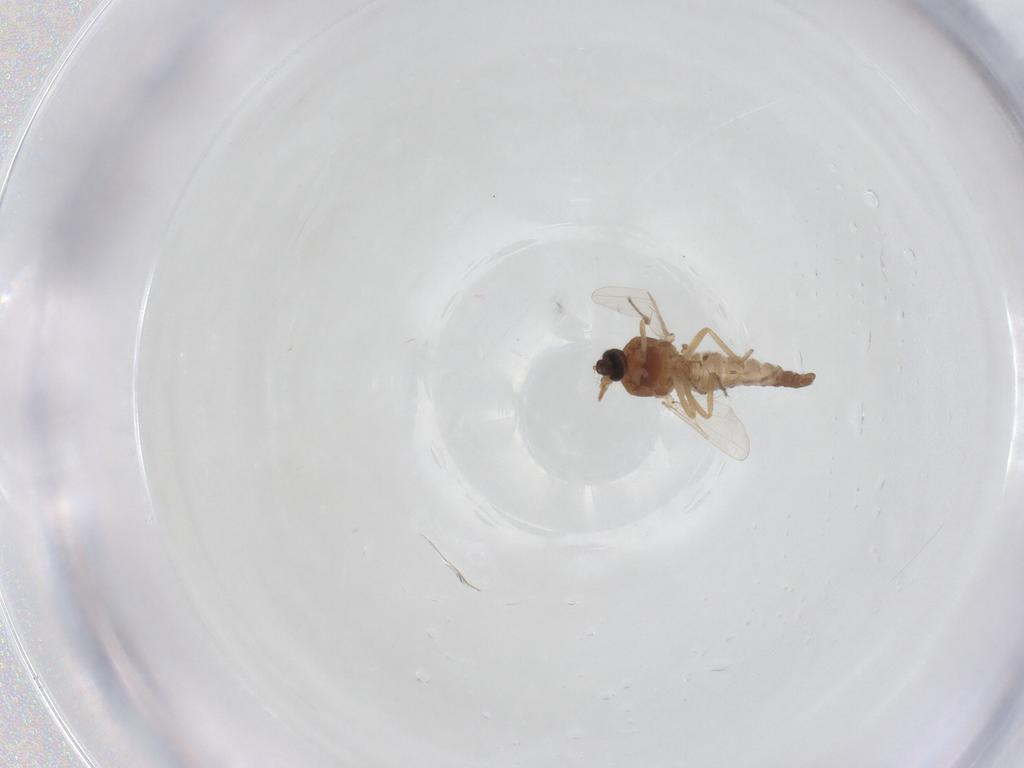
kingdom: Animalia
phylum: Arthropoda
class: Insecta
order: Diptera
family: Ceratopogonidae
